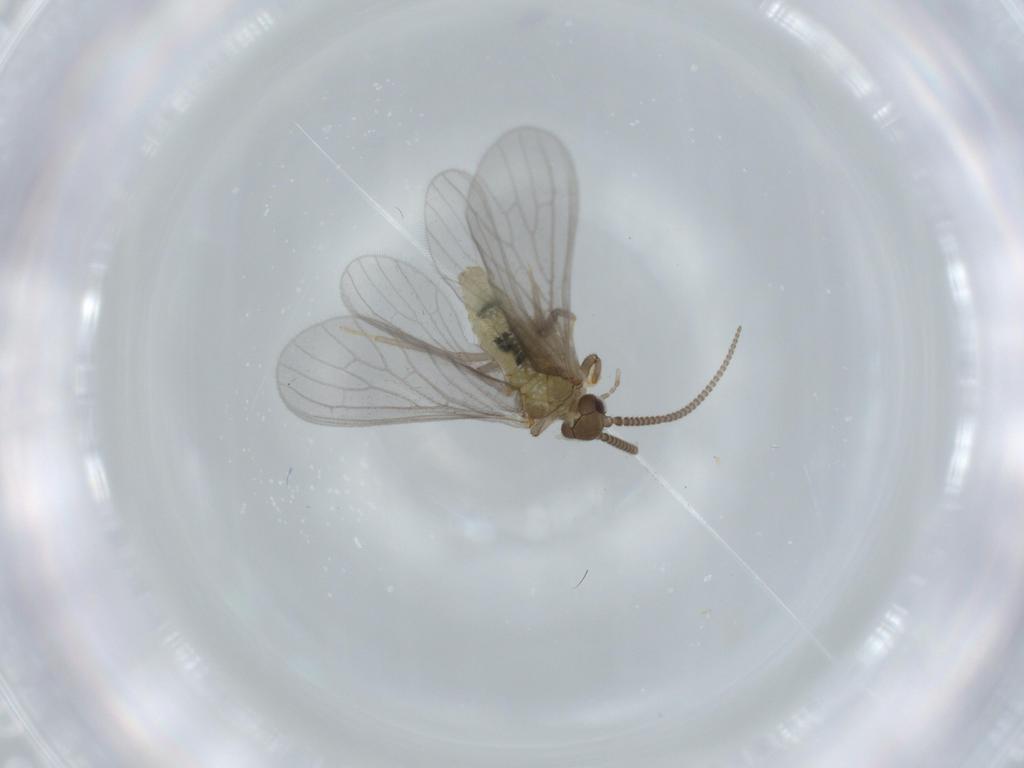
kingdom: Animalia
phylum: Arthropoda
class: Insecta
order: Neuroptera
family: Coniopterygidae
